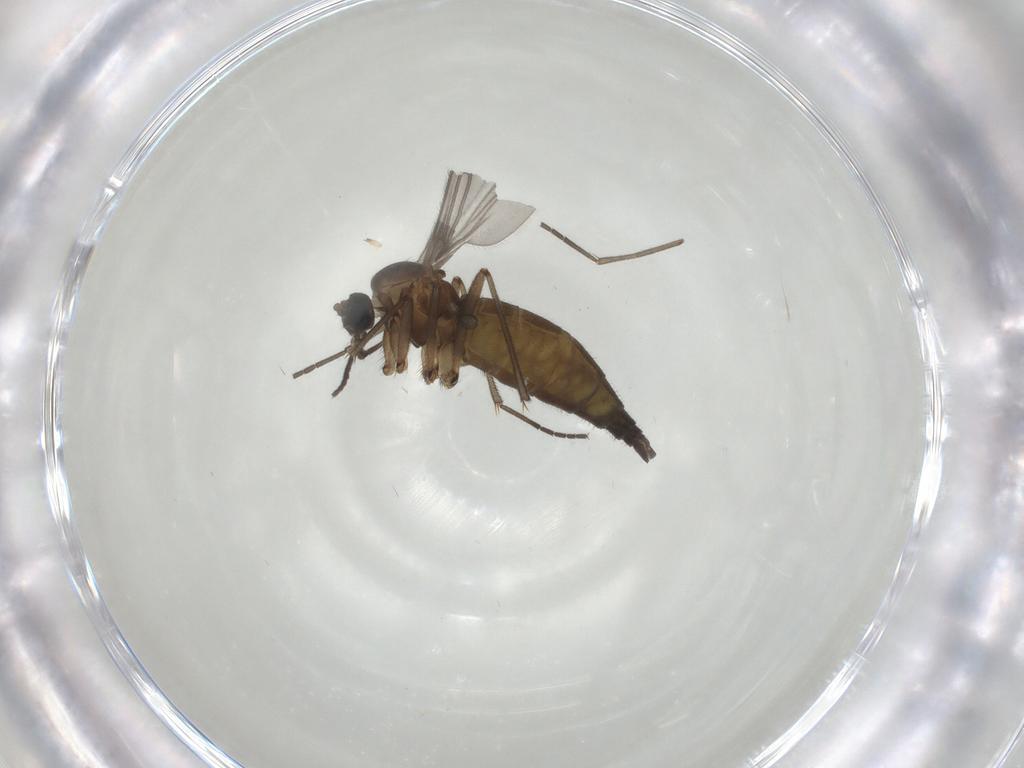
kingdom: Animalia
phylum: Arthropoda
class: Insecta
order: Diptera
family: Sciaridae
